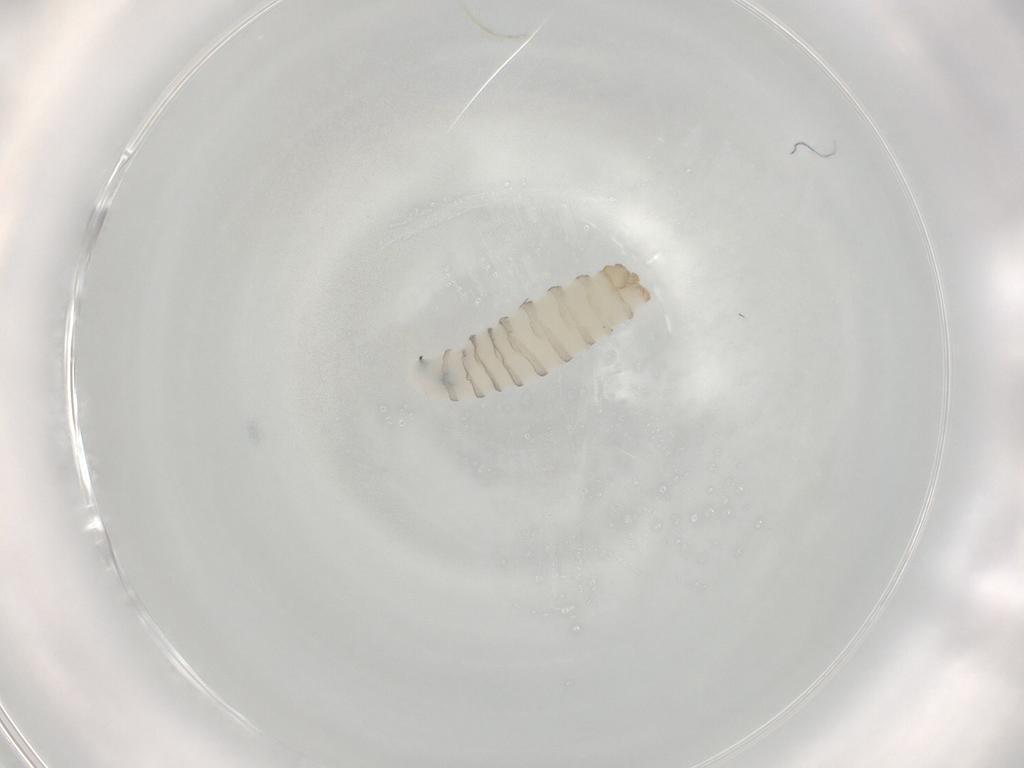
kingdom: Animalia
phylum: Arthropoda
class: Insecta
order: Diptera
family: Sarcophagidae
